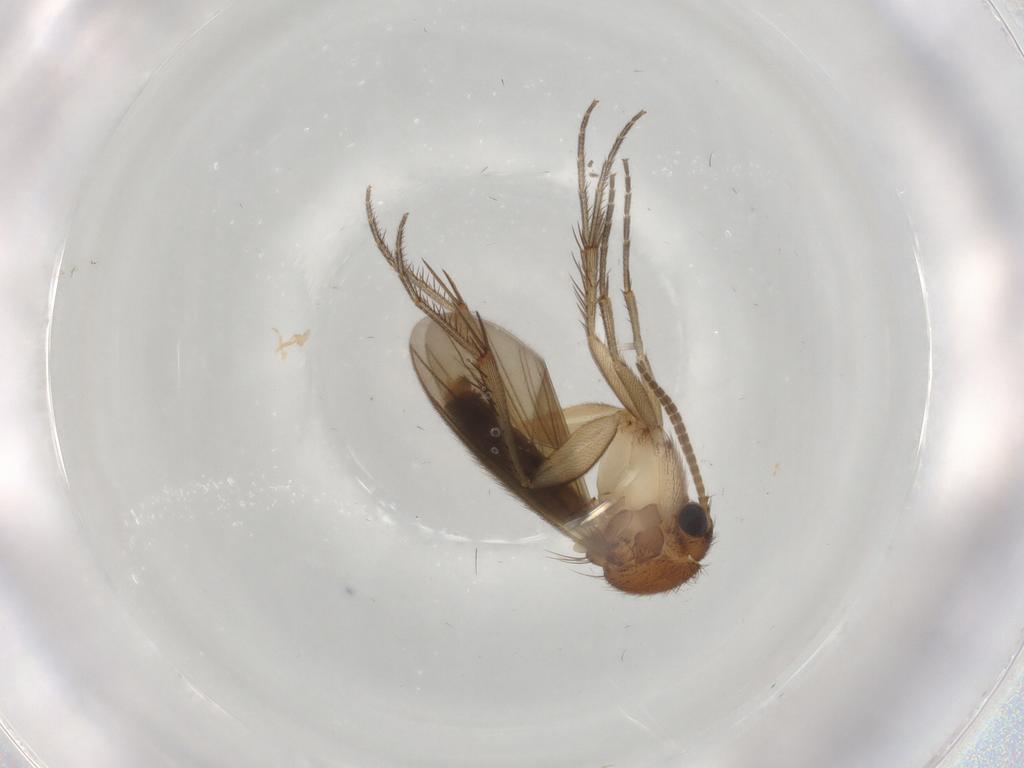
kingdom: Animalia
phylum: Arthropoda
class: Insecta
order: Diptera
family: Mycetophilidae
